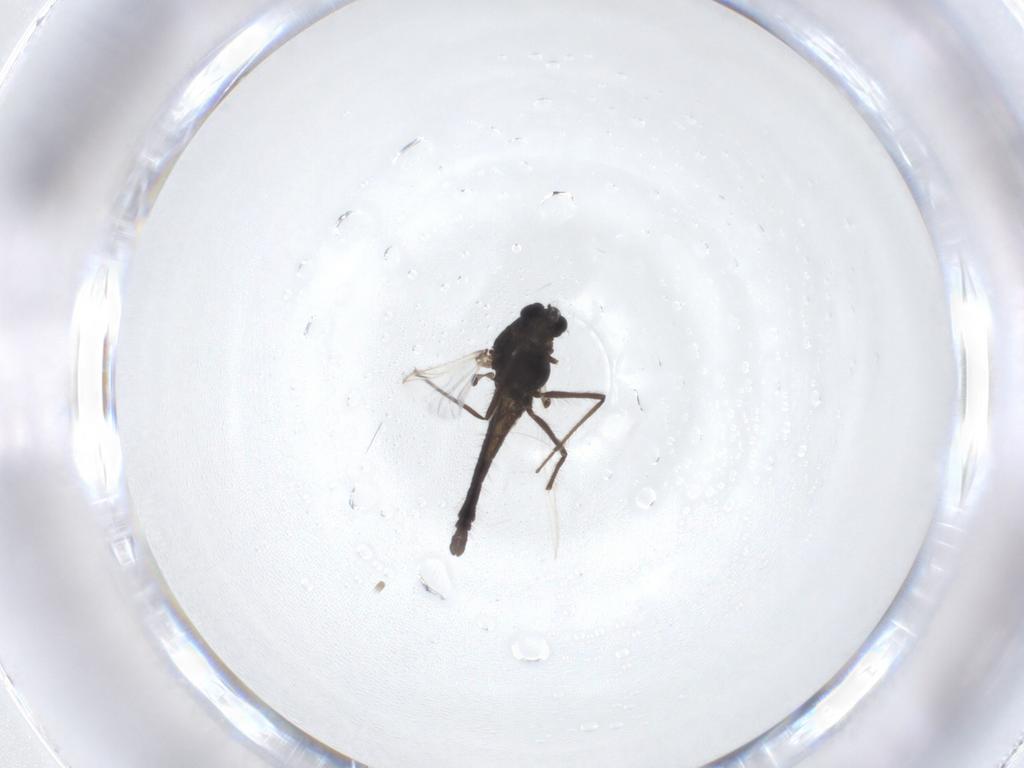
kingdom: Animalia
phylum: Arthropoda
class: Insecta
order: Diptera
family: Chironomidae
